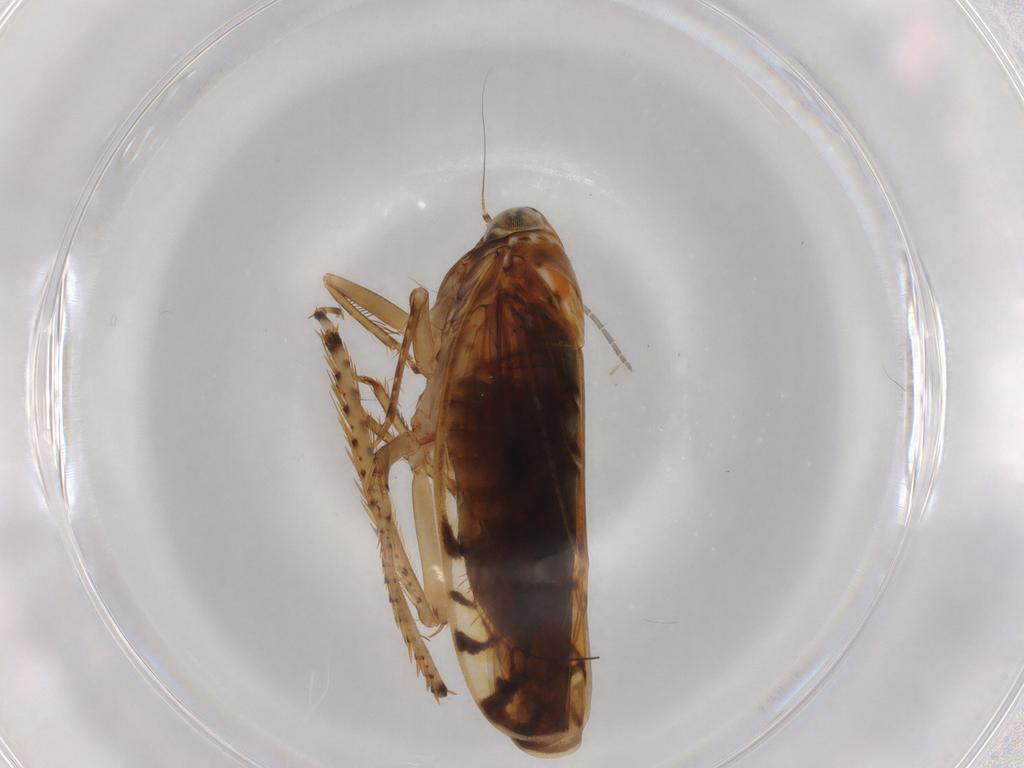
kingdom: Animalia
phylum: Arthropoda
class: Insecta
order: Hemiptera
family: Cicadellidae
